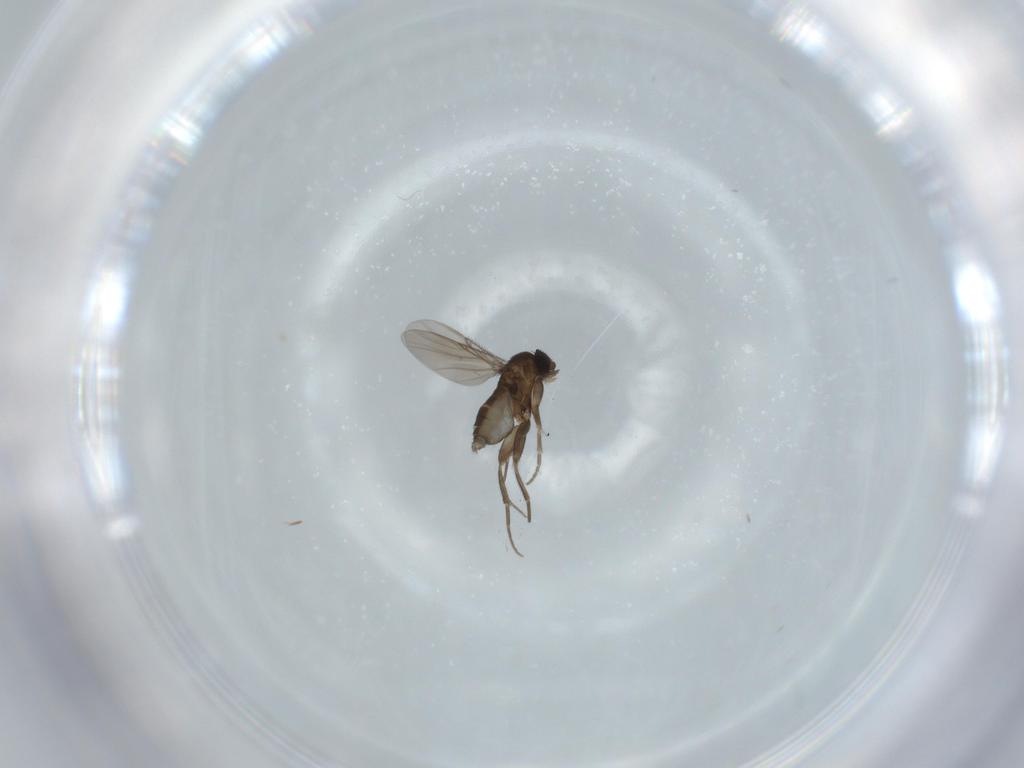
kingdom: Animalia
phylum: Arthropoda
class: Insecta
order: Diptera
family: Phoridae
